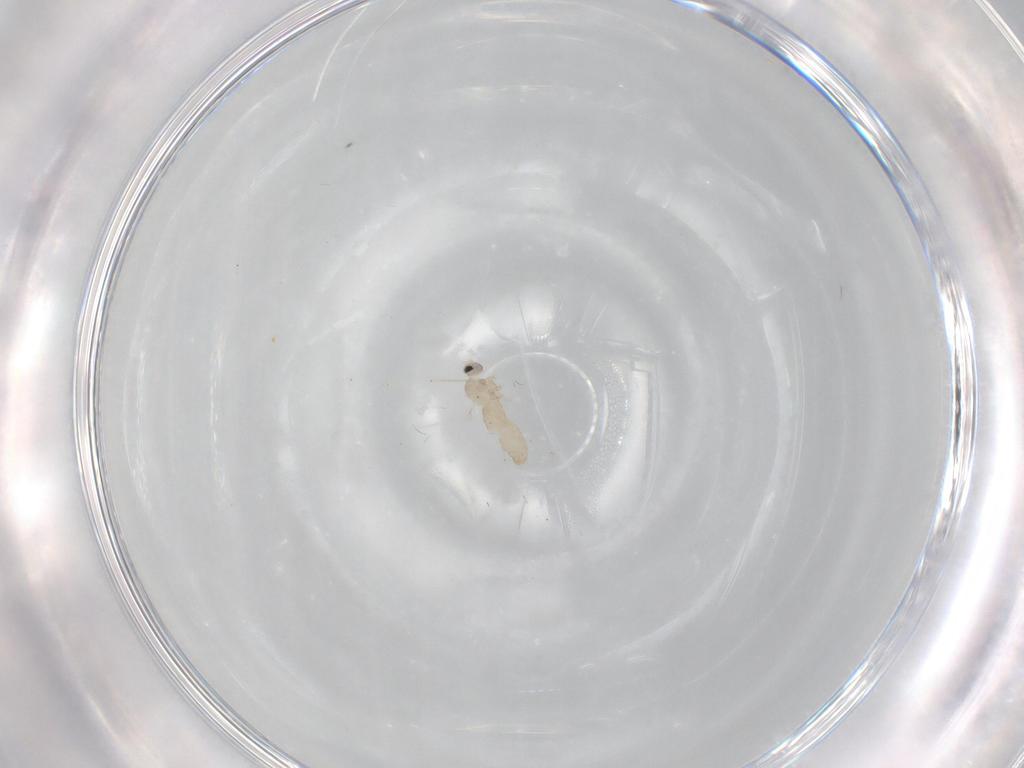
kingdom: Animalia
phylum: Arthropoda
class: Insecta
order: Diptera
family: Cecidomyiidae
